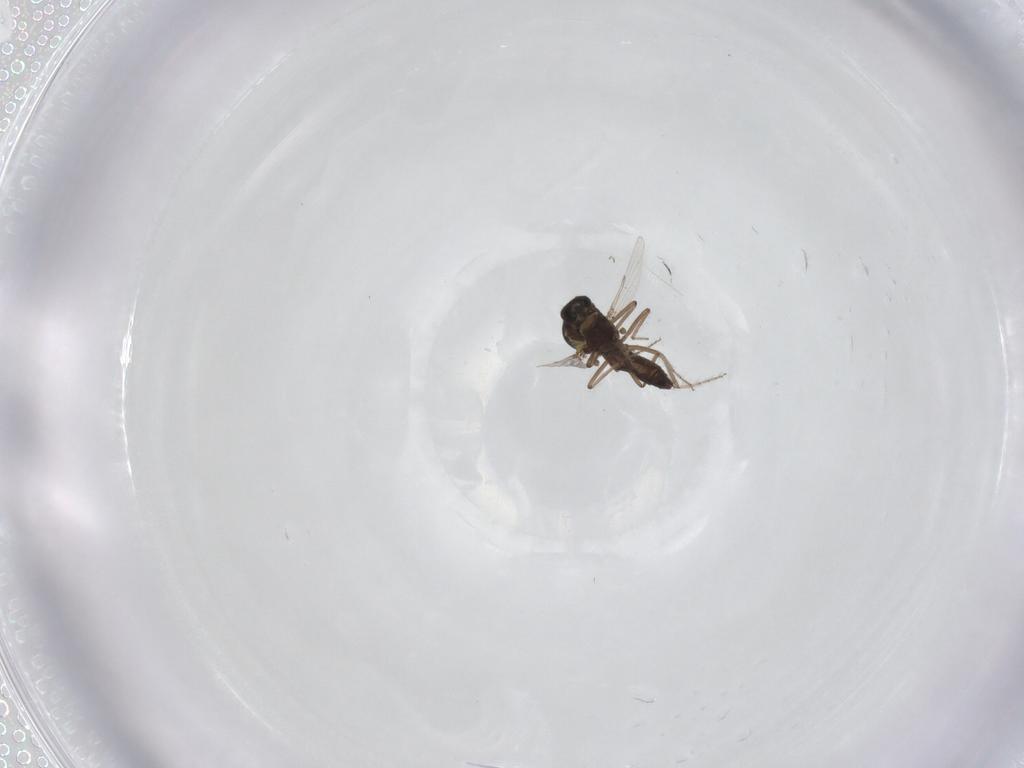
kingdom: Animalia
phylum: Arthropoda
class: Insecta
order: Diptera
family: Ceratopogonidae
